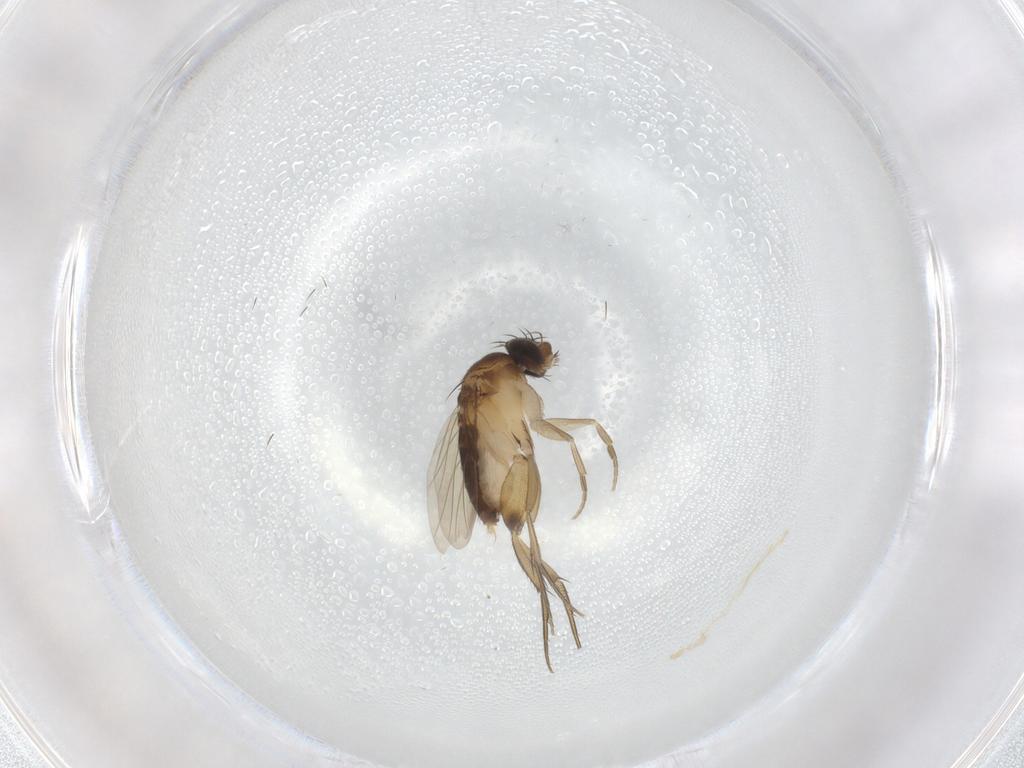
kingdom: Animalia
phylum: Arthropoda
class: Insecta
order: Diptera
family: Phoridae
